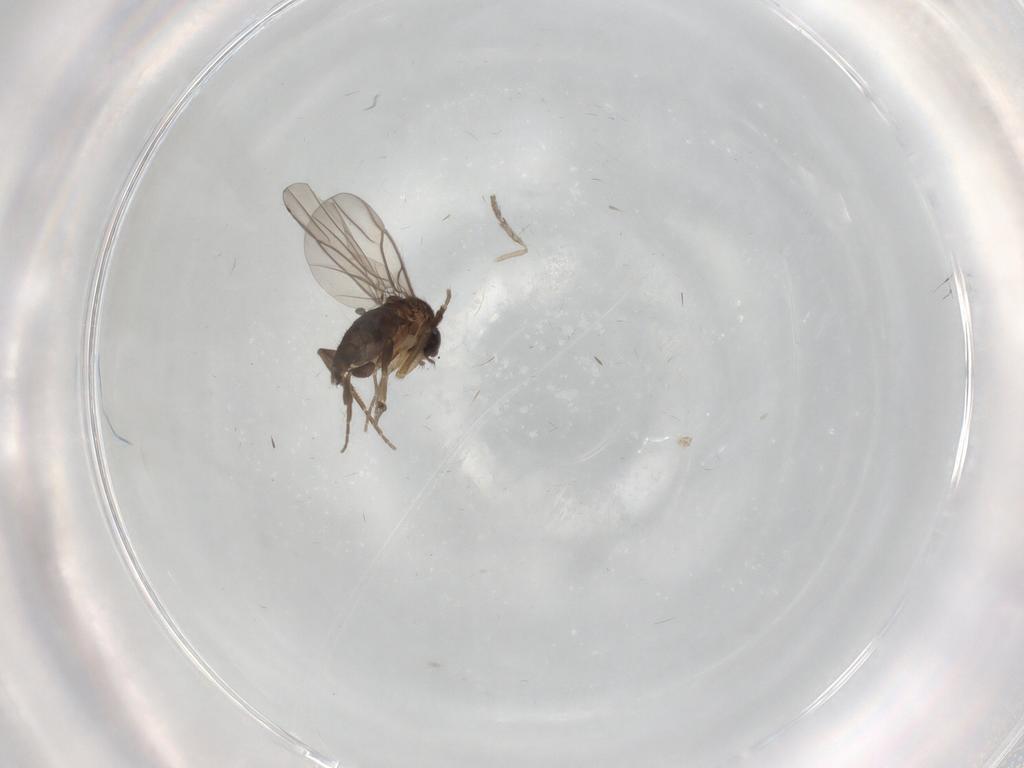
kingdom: Animalia
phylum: Arthropoda
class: Insecta
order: Diptera
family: Phoridae
